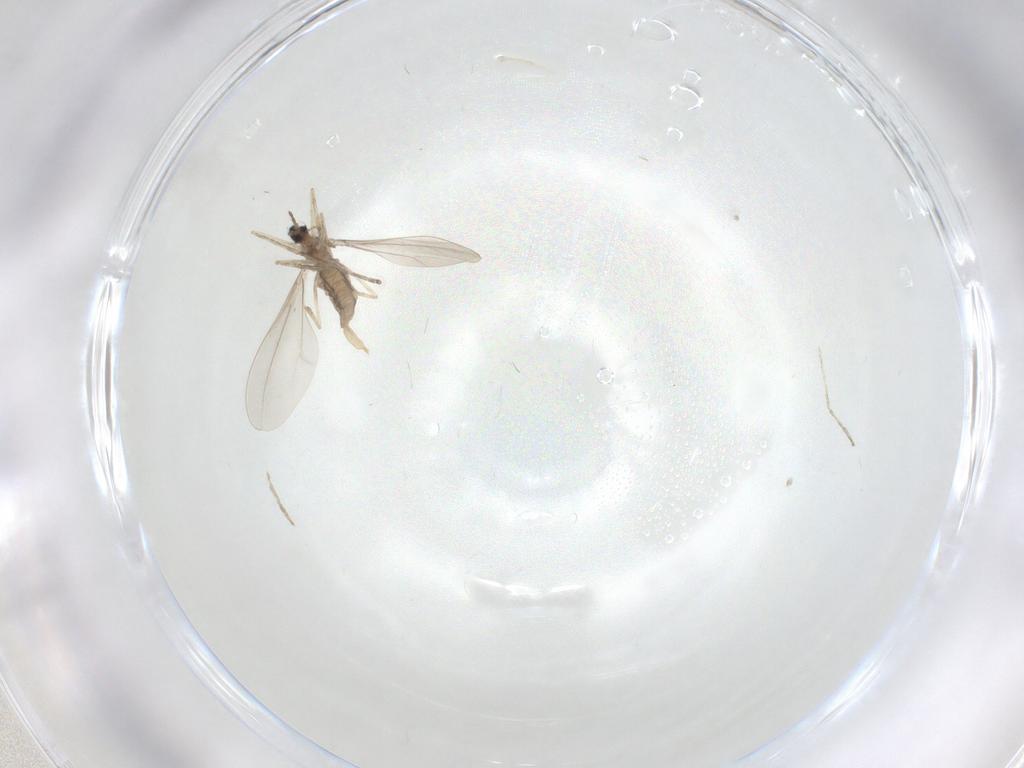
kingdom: Animalia
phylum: Arthropoda
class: Insecta
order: Diptera
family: Cecidomyiidae
